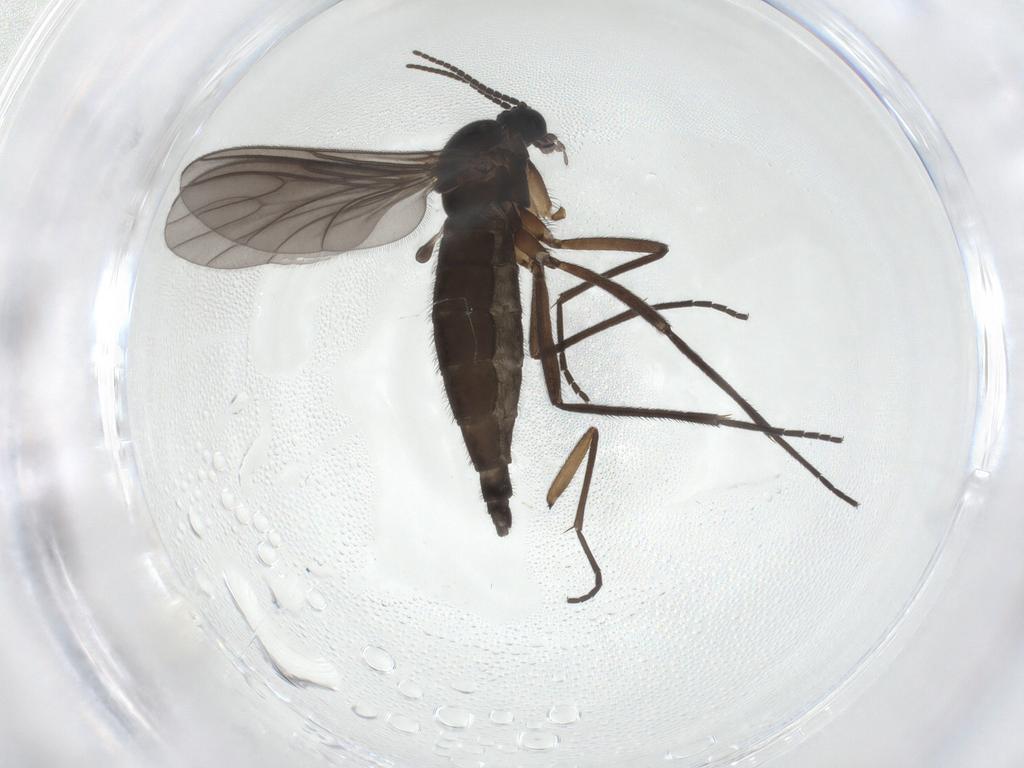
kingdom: Animalia
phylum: Arthropoda
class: Insecta
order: Diptera
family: Sciaridae
